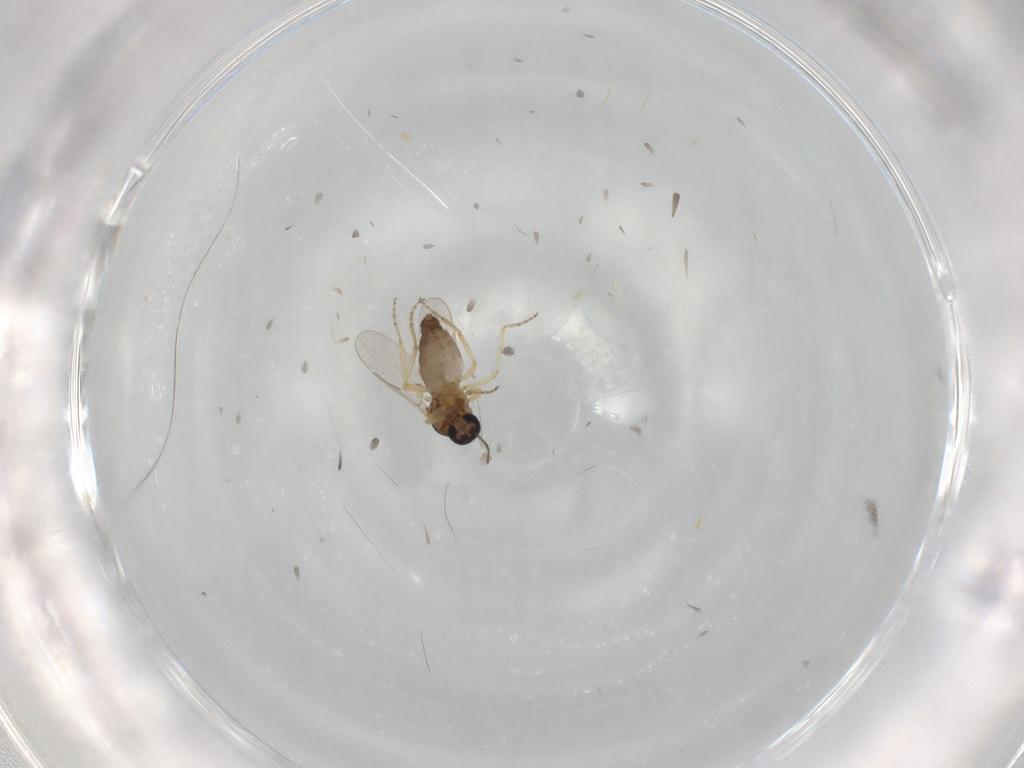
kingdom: Animalia
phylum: Arthropoda
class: Insecta
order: Diptera
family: Ceratopogonidae
